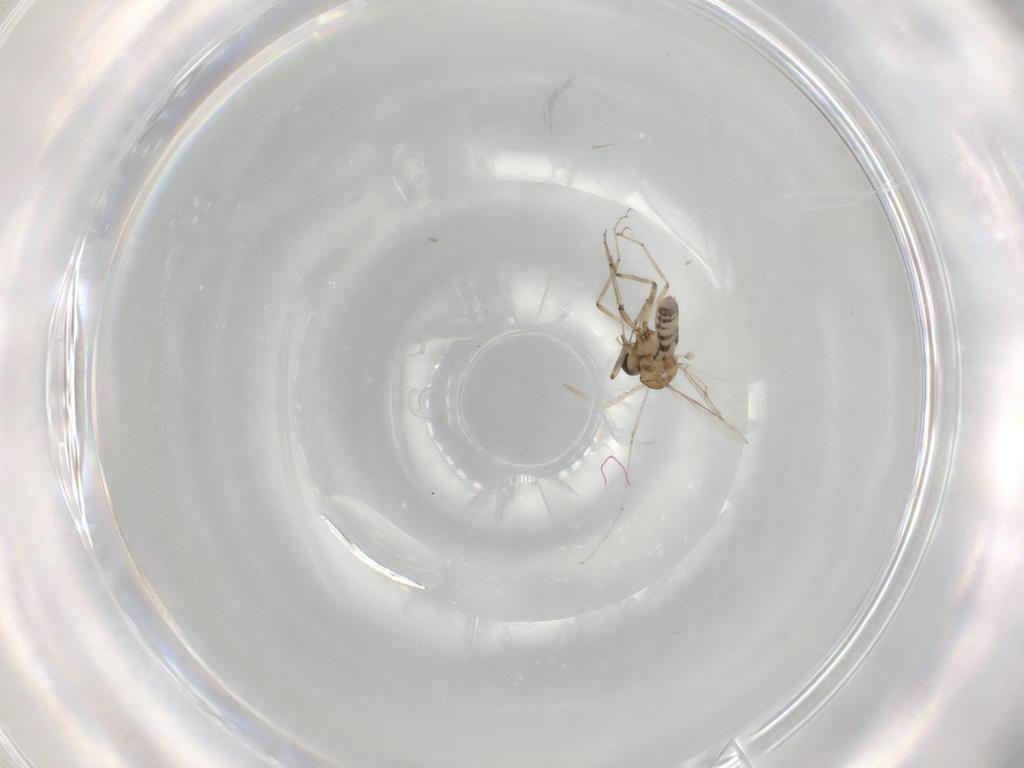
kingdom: Animalia
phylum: Arthropoda
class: Insecta
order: Diptera
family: Ceratopogonidae
